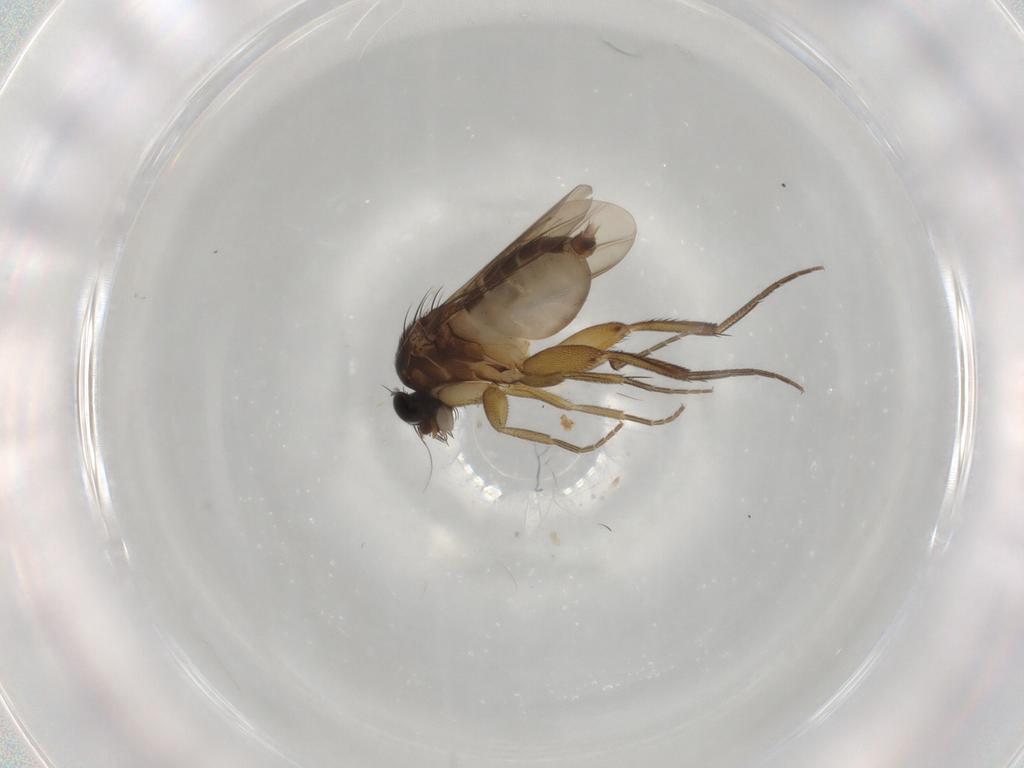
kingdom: Animalia
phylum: Arthropoda
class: Insecta
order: Diptera
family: Phoridae
